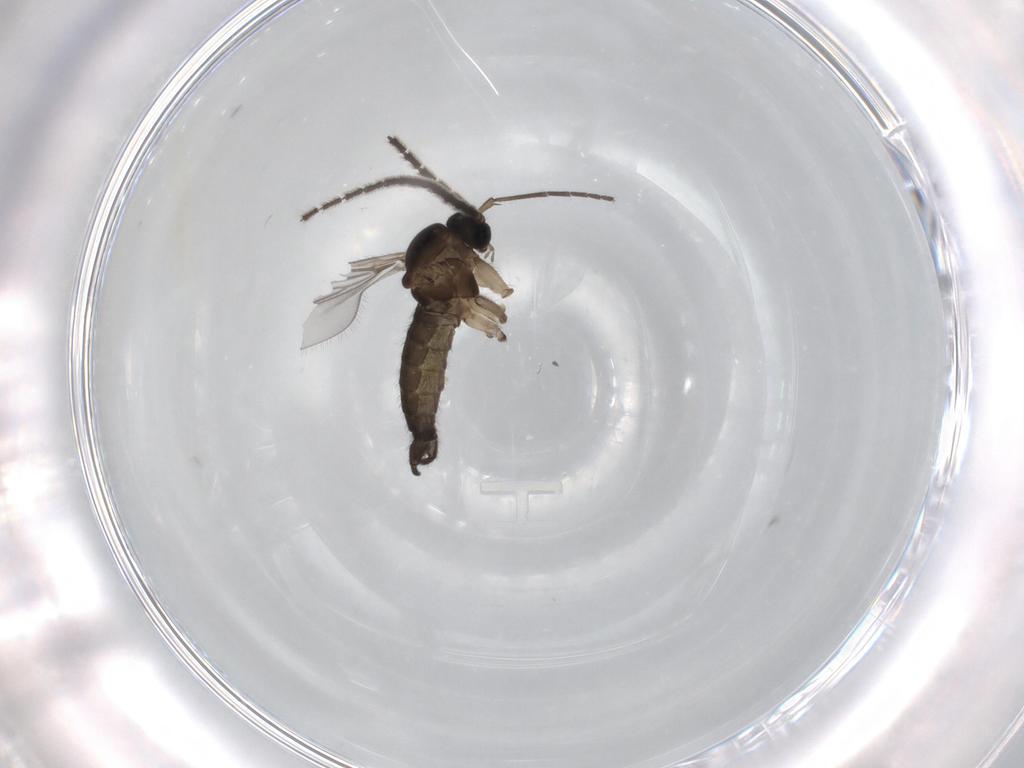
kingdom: Animalia
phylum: Arthropoda
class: Insecta
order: Diptera
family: Sciaridae
